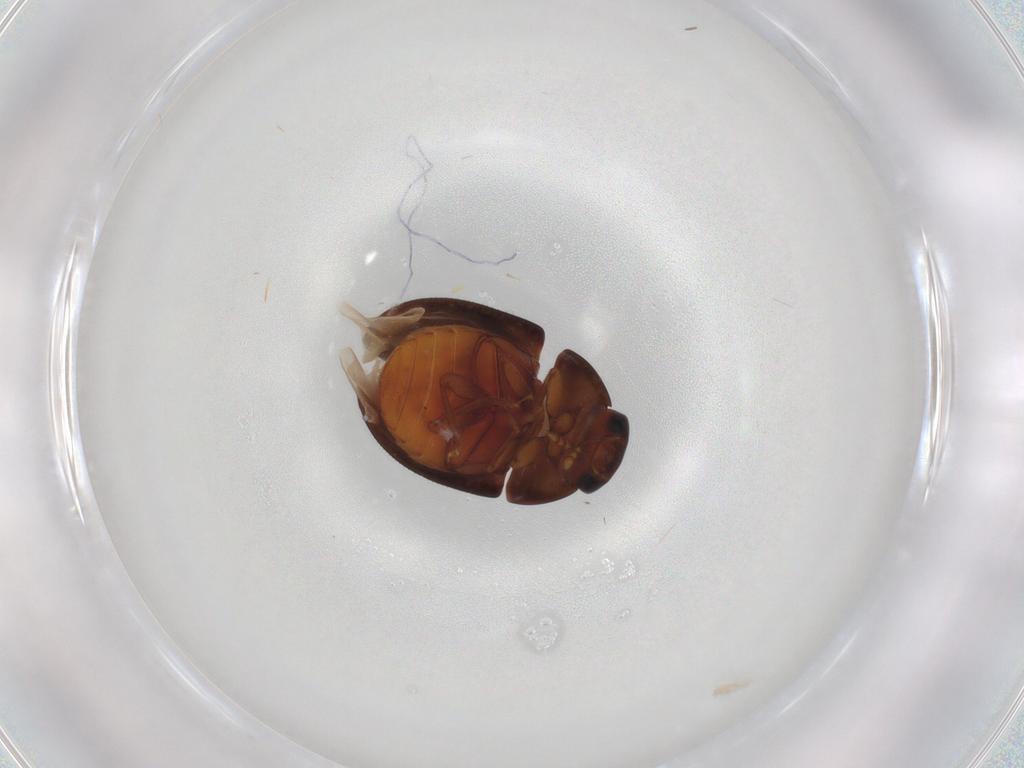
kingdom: Animalia
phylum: Arthropoda
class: Insecta
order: Coleoptera
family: Phalacridae
